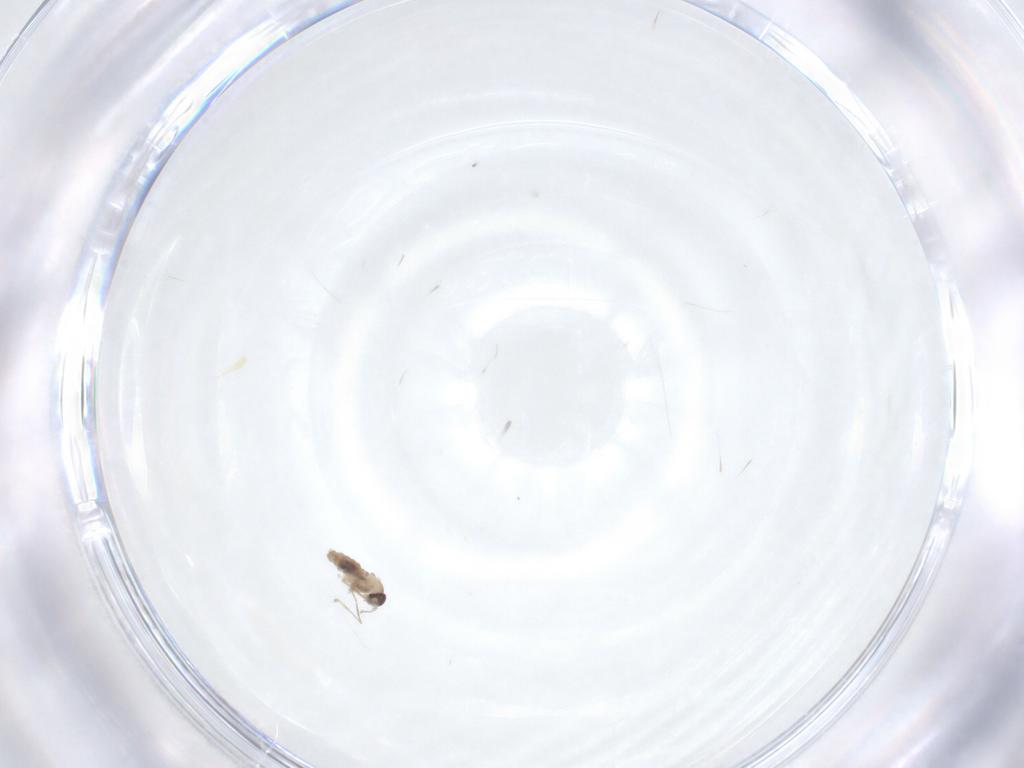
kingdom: Animalia
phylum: Arthropoda
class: Insecta
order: Diptera
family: Cecidomyiidae
